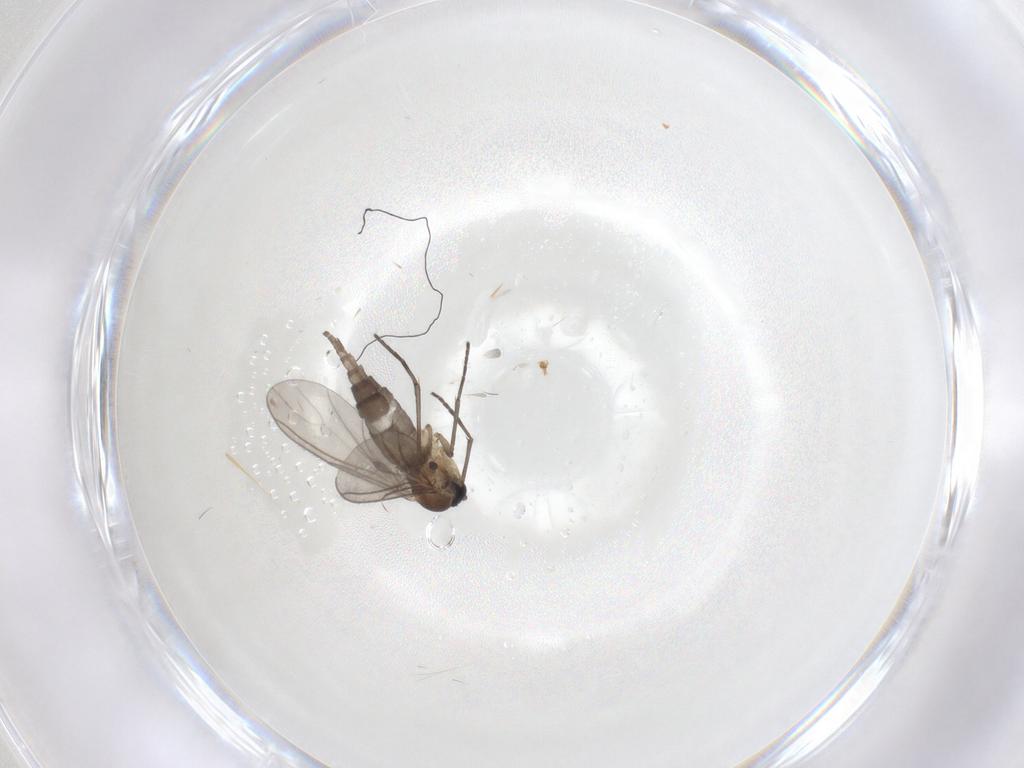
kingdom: Animalia
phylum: Arthropoda
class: Insecta
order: Diptera
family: Sciaridae
